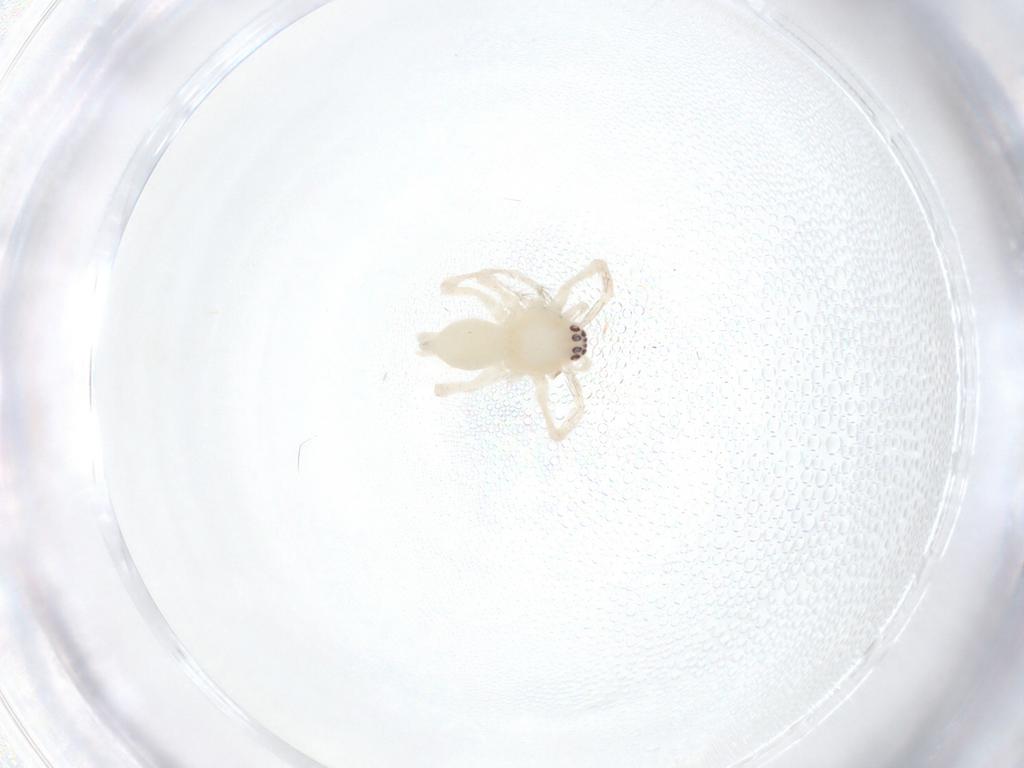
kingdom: Animalia
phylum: Arthropoda
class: Arachnida
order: Araneae
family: Anyphaenidae
